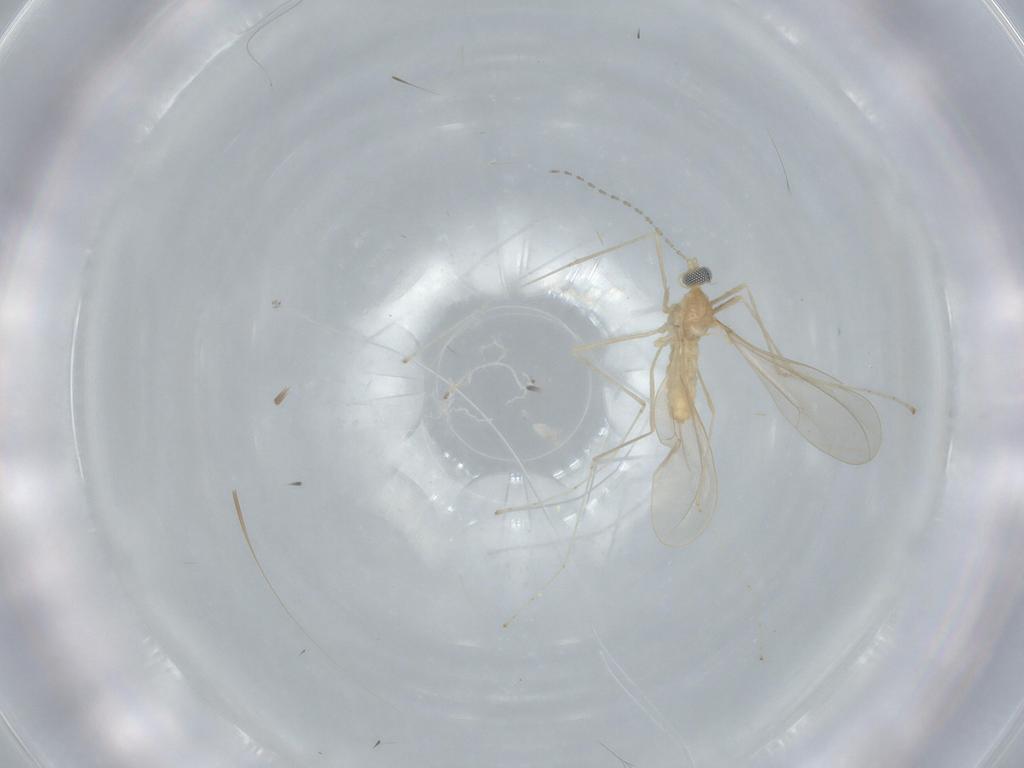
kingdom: Animalia
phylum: Arthropoda
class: Insecta
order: Diptera
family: Cecidomyiidae
